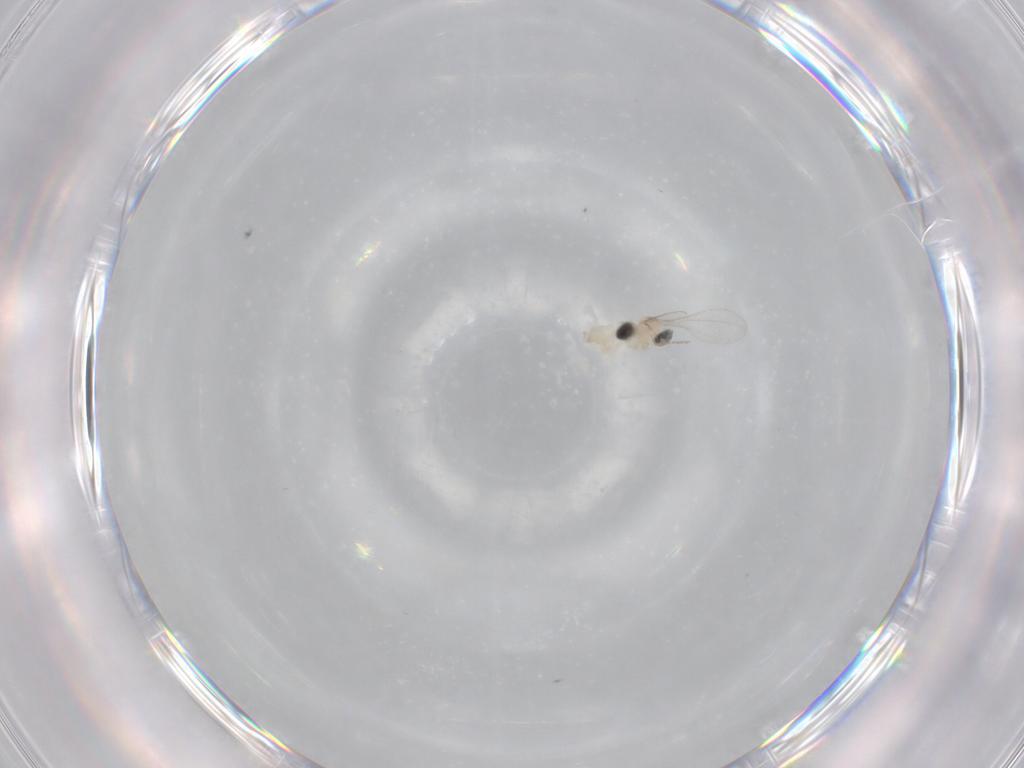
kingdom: Animalia
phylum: Arthropoda
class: Insecta
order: Diptera
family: Cecidomyiidae
